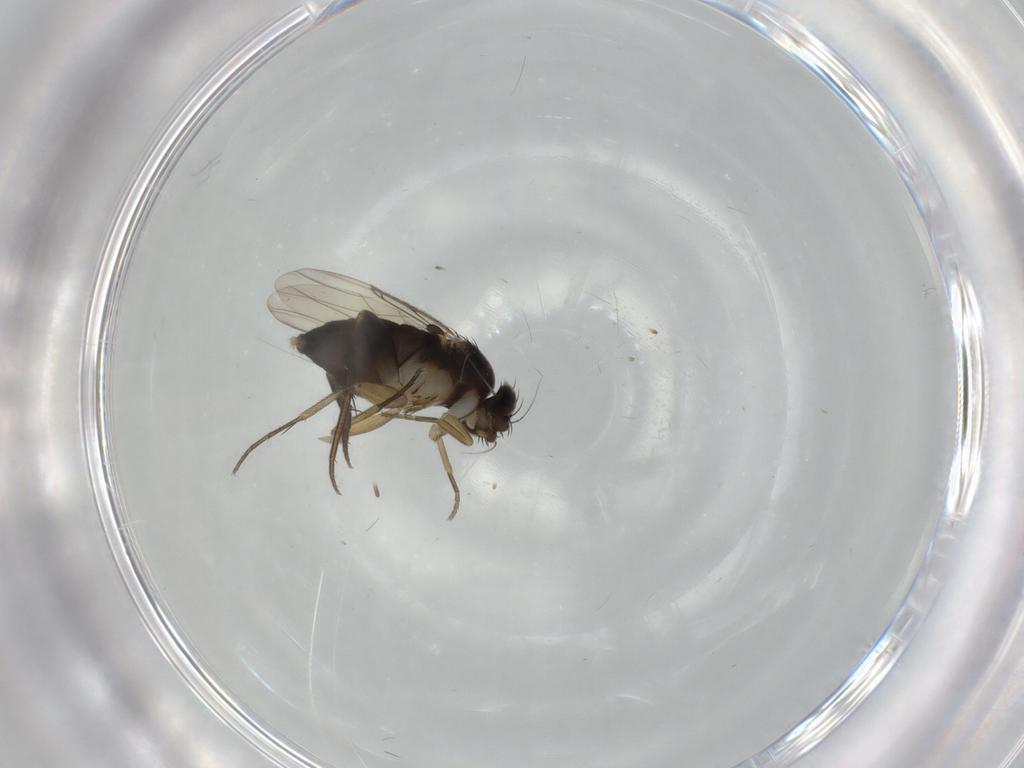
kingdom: Animalia
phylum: Arthropoda
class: Insecta
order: Diptera
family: Phoridae
